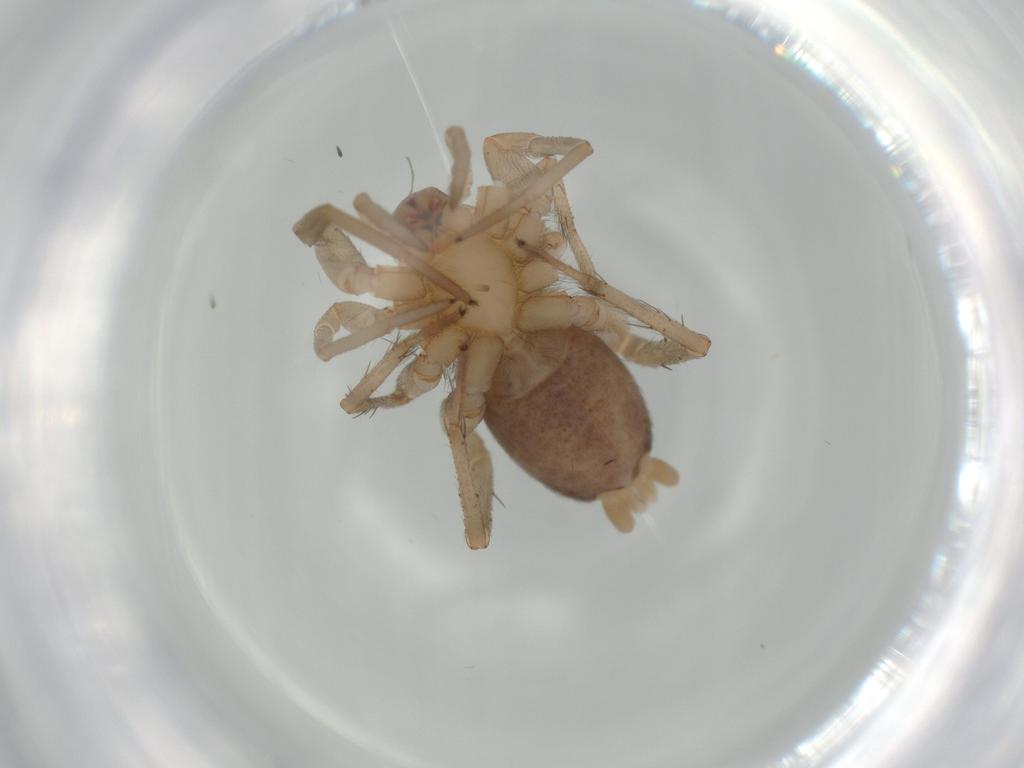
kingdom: Animalia
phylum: Arthropoda
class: Arachnida
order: Araneae
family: Gnaphosidae
